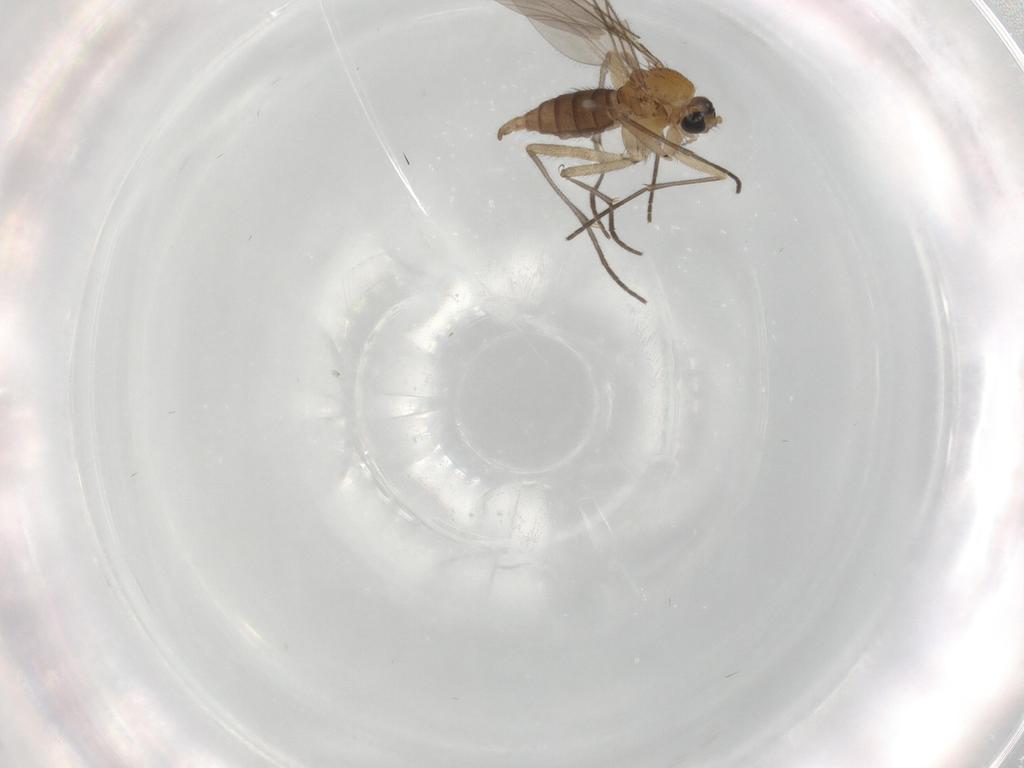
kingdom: Animalia
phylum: Arthropoda
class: Insecta
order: Diptera
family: Sciaridae
